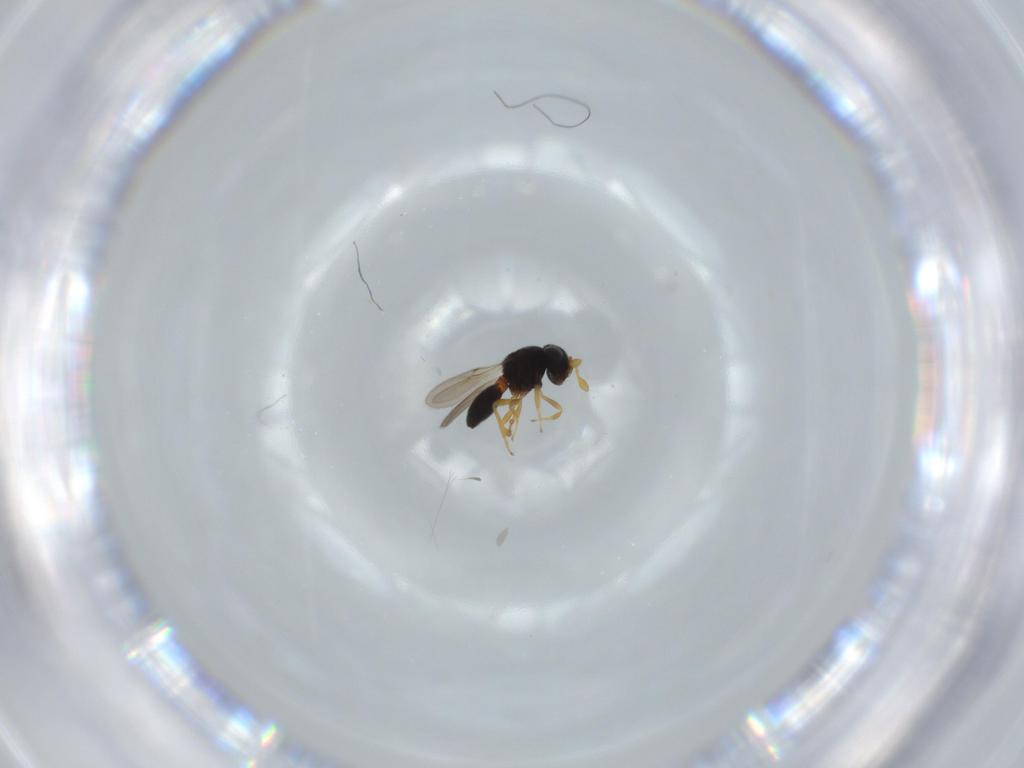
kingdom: Animalia
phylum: Arthropoda
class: Insecta
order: Hymenoptera
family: Scelionidae
